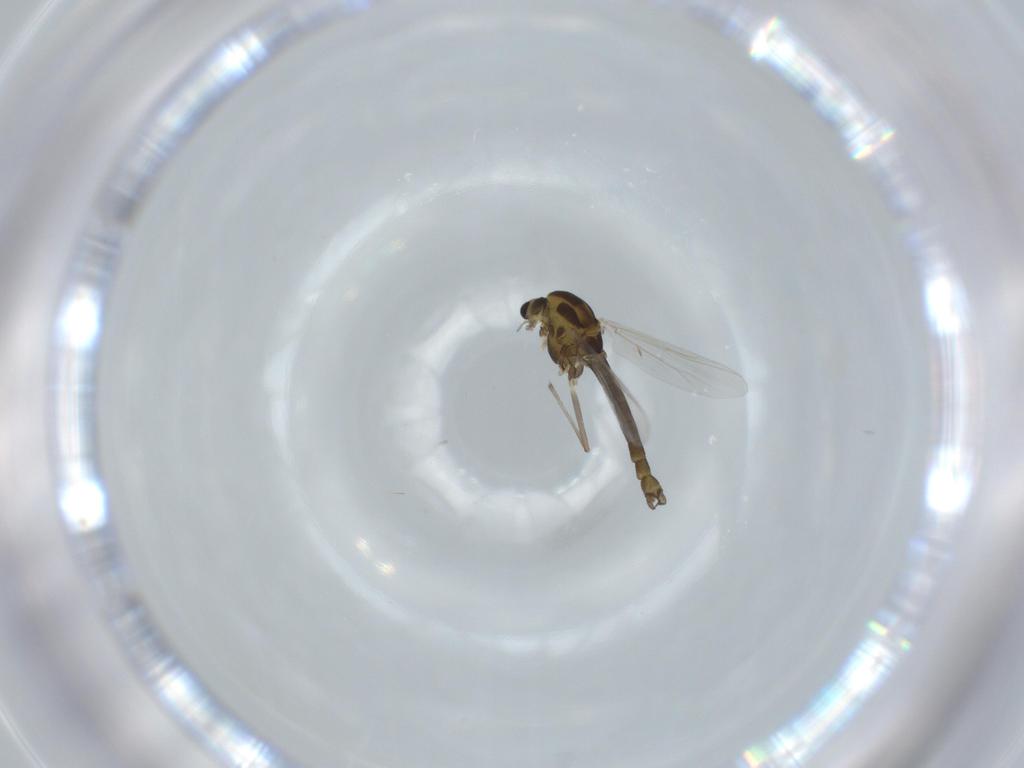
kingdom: Animalia
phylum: Arthropoda
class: Insecta
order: Diptera
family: Chironomidae
